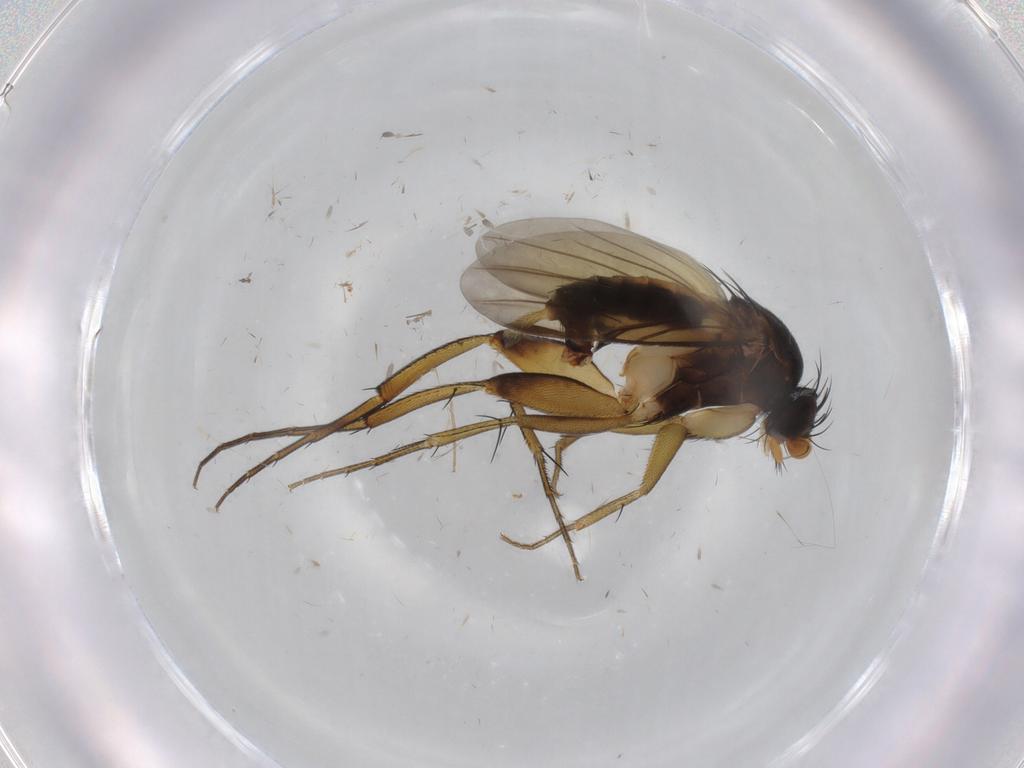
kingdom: Animalia
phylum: Arthropoda
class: Insecta
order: Diptera
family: Phoridae
